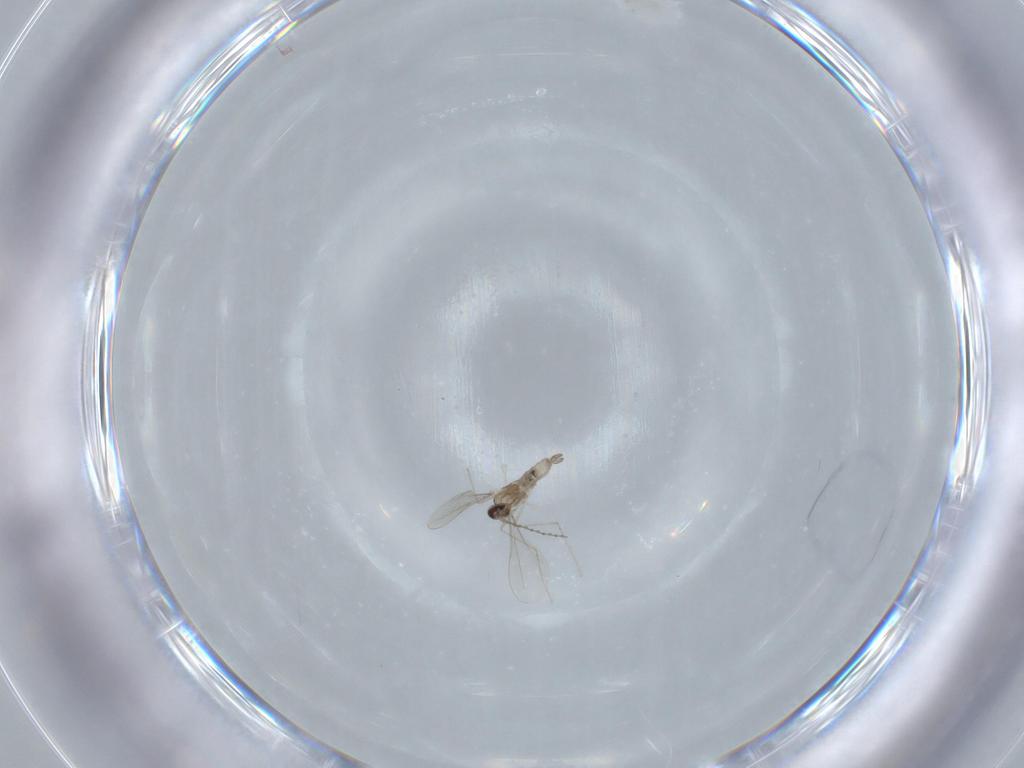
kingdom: Animalia
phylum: Arthropoda
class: Insecta
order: Diptera
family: Cecidomyiidae
